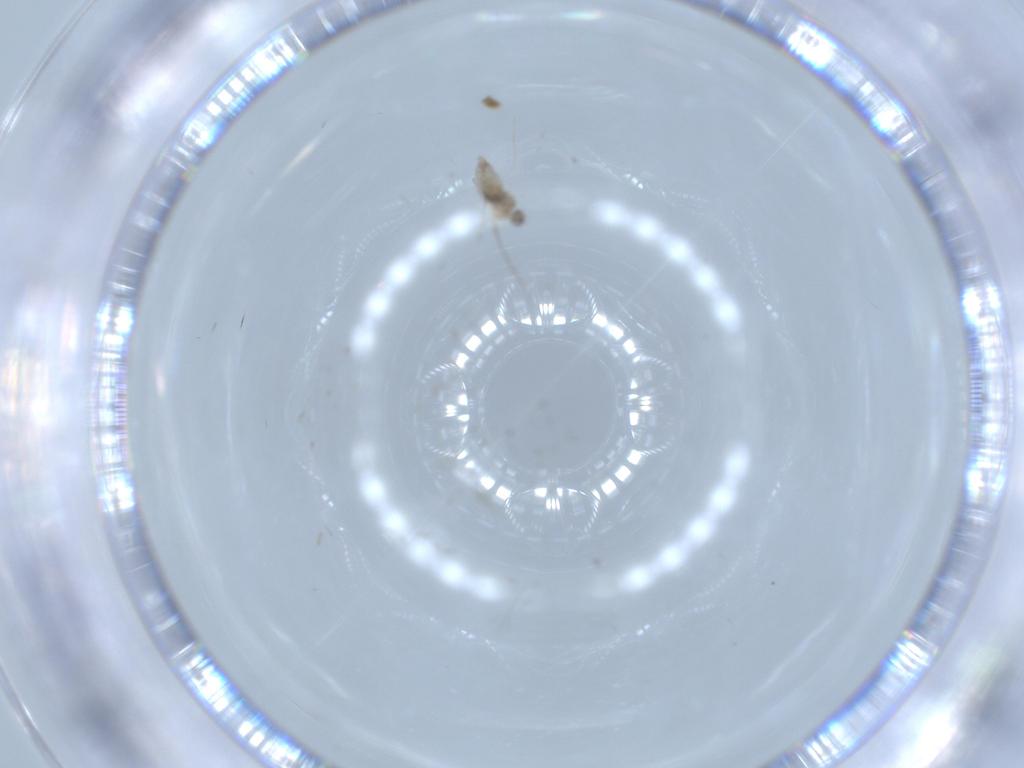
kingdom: Animalia
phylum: Arthropoda
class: Insecta
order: Diptera
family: Cecidomyiidae
